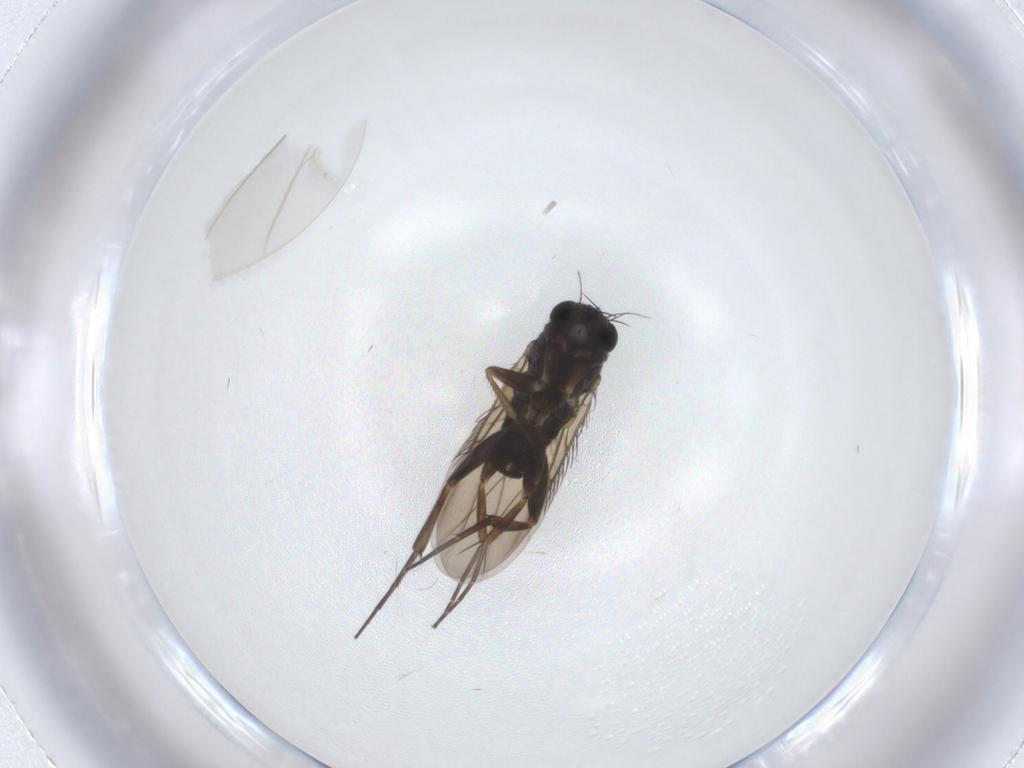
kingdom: Animalia
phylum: Arthropoda
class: Insecta
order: Diptera
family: Phoridae
